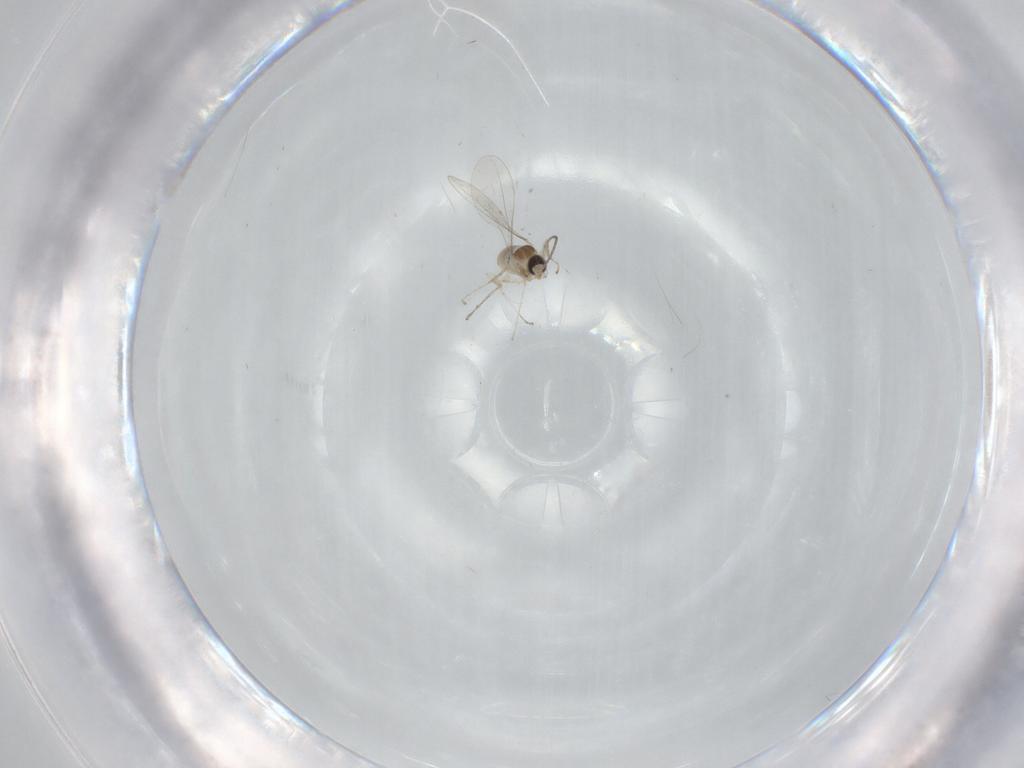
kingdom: Animalia
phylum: Arthropoda
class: Insecta
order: Diptera
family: Cecidomyiidae
